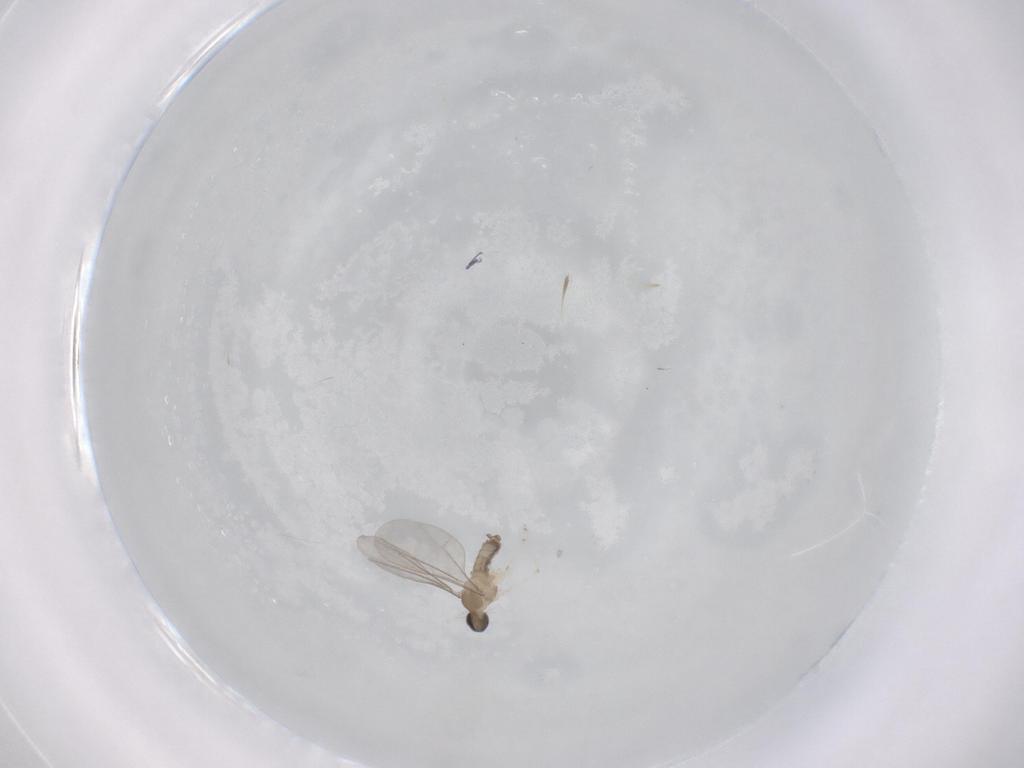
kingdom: Animalia
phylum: Arthropoda
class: Insecta
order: Diptera
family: Cecidomyiidae
